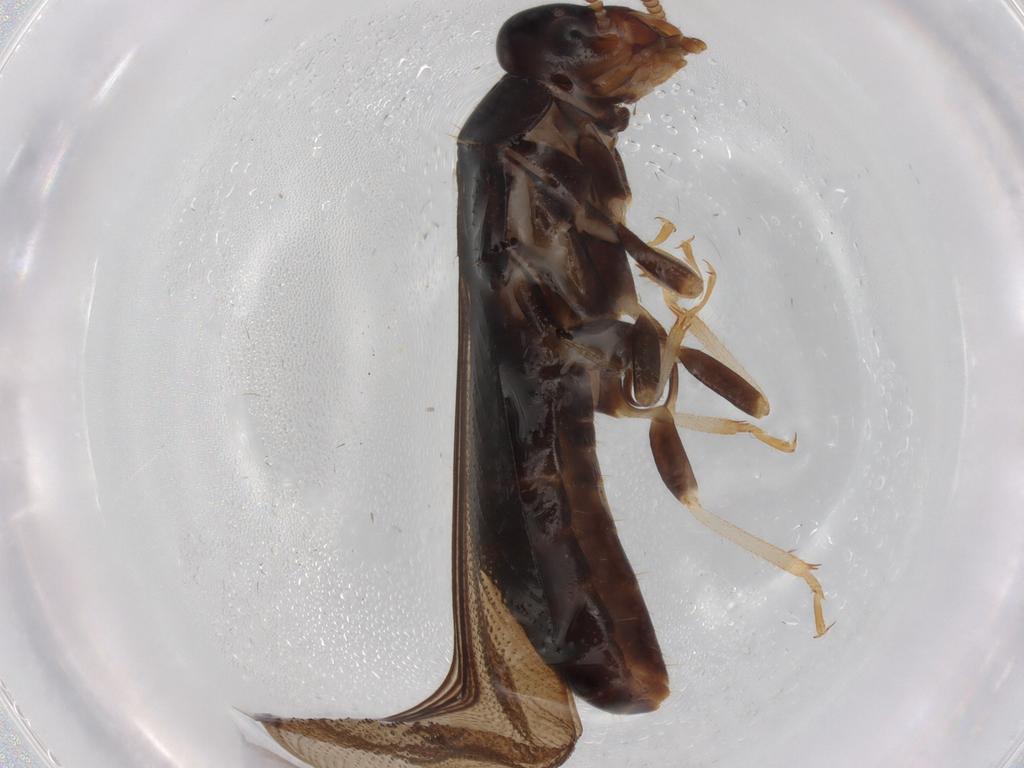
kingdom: Animalia
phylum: Arthropoda
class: Insecta
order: Blattodea
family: Kalotermitidae
